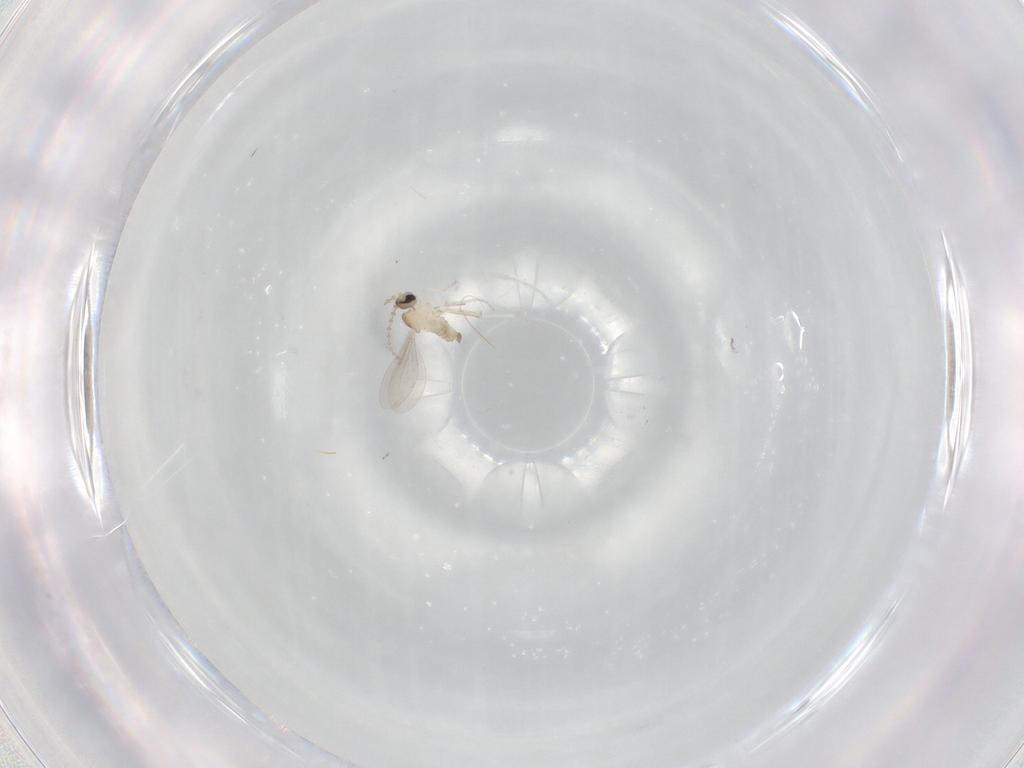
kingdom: Animalia
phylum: Arthropoda
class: Insecta
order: Diptera
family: Cecidomyiidae
